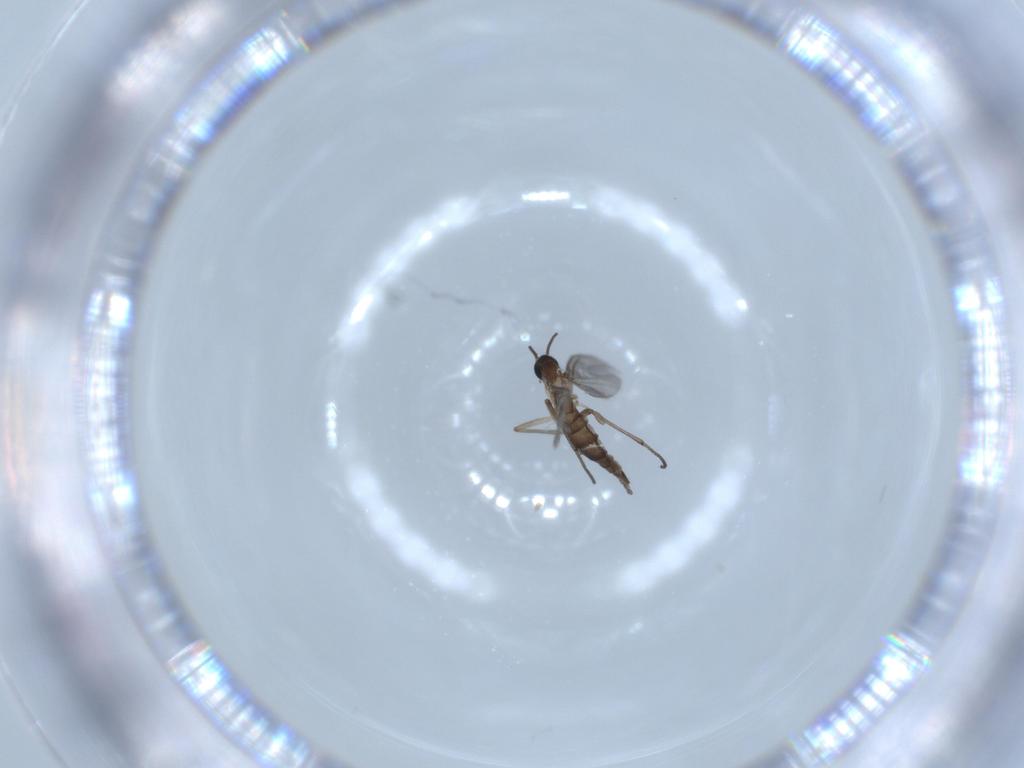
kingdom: Animalia
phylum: Arthropoda
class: Insecta
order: Diptera
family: Sciaridae
